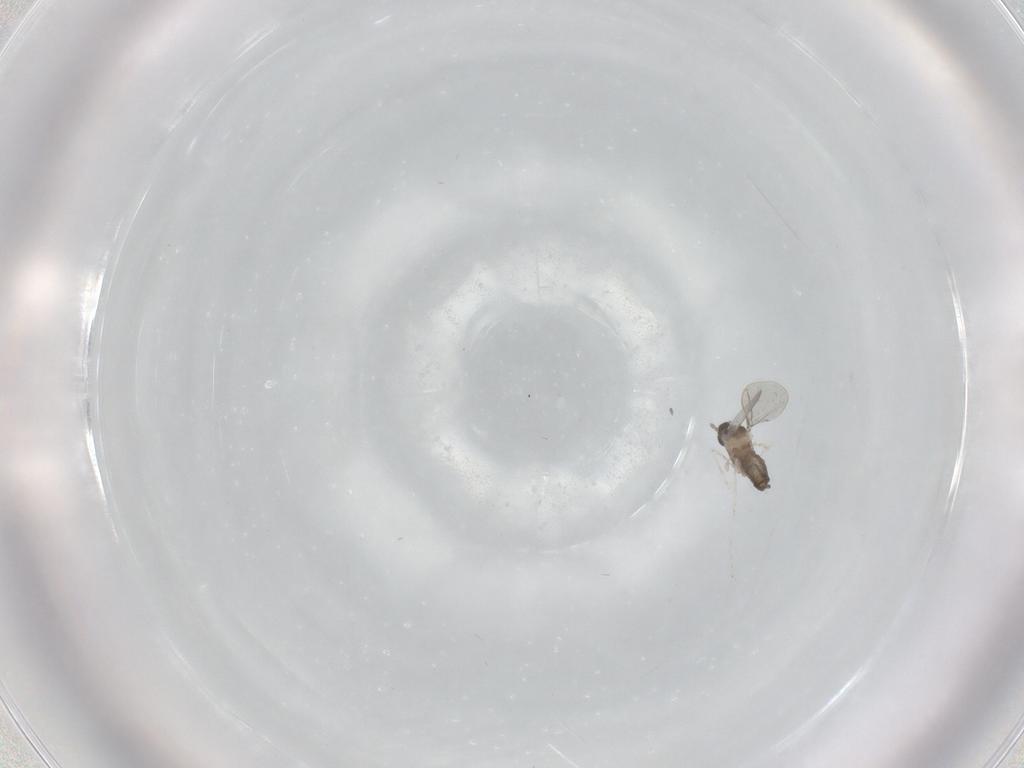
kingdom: Animalia
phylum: Arthropoda
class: Insecta
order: Diptera
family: Cecidomyiidae
